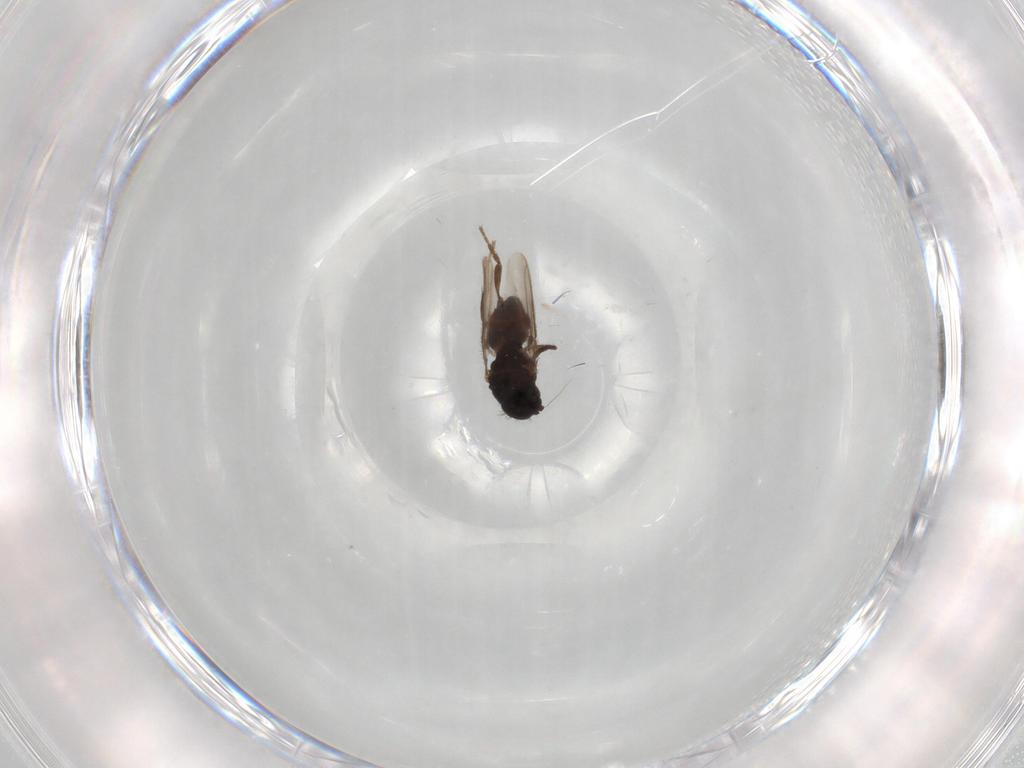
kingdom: Animalia
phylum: Arthropoda
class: Insecta
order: Diptera
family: Sphaeroceridae
